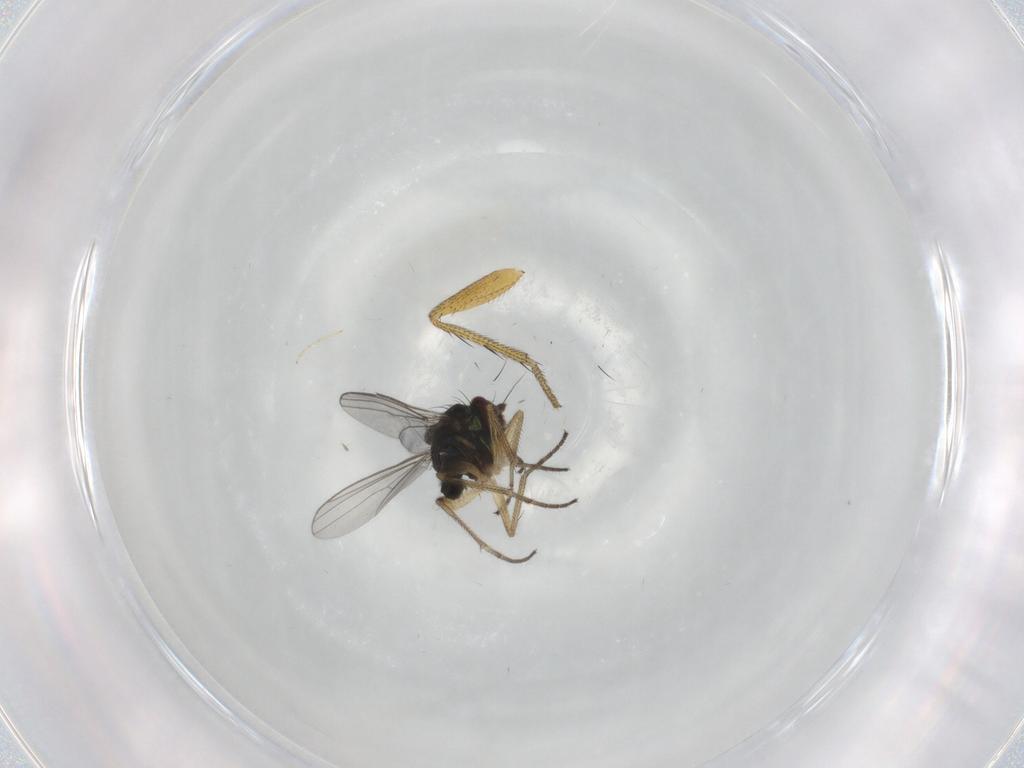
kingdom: Animalia
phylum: Arthropoda
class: Insecta
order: Diptera
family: Dolichopodidae
